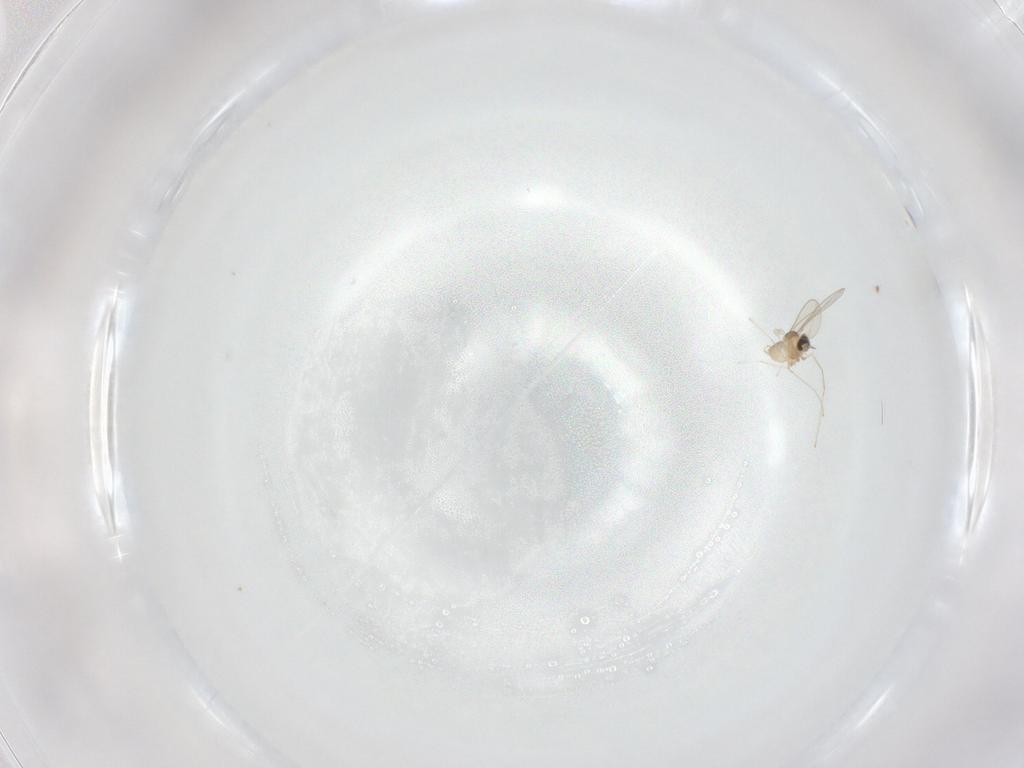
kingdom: Animalia
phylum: Arthropoda
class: Insecta
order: Diptera
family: Cecidomyiidae
